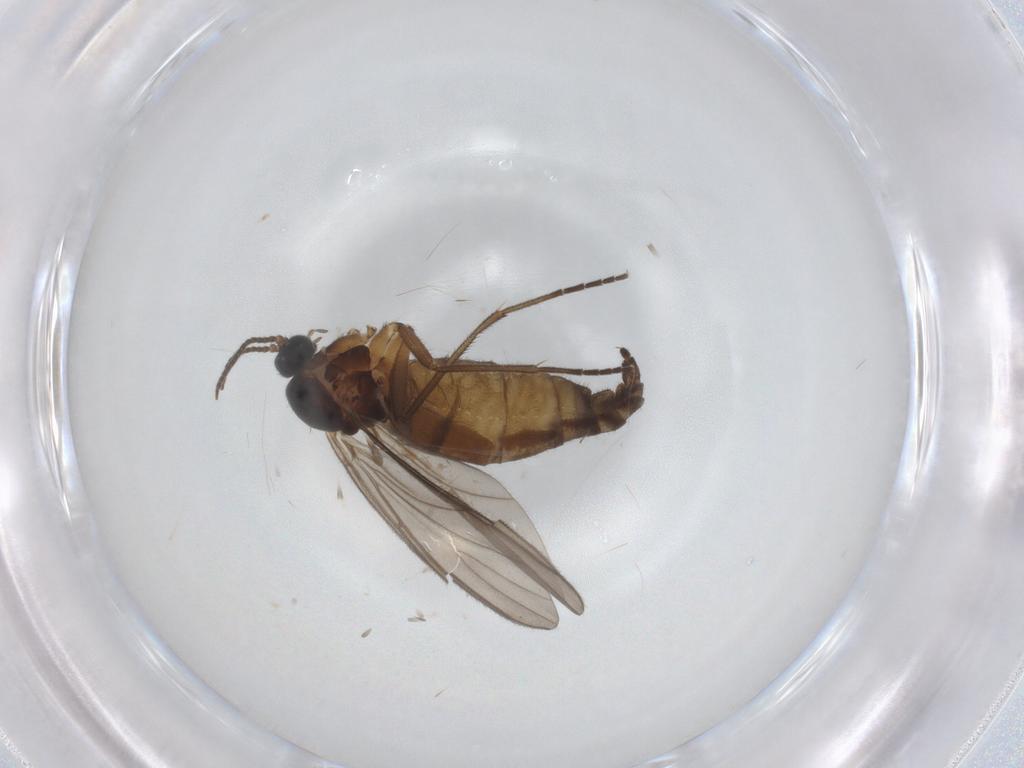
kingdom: Animalia
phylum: Arthropoda
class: Insecta
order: Diptera
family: Sciaridae
